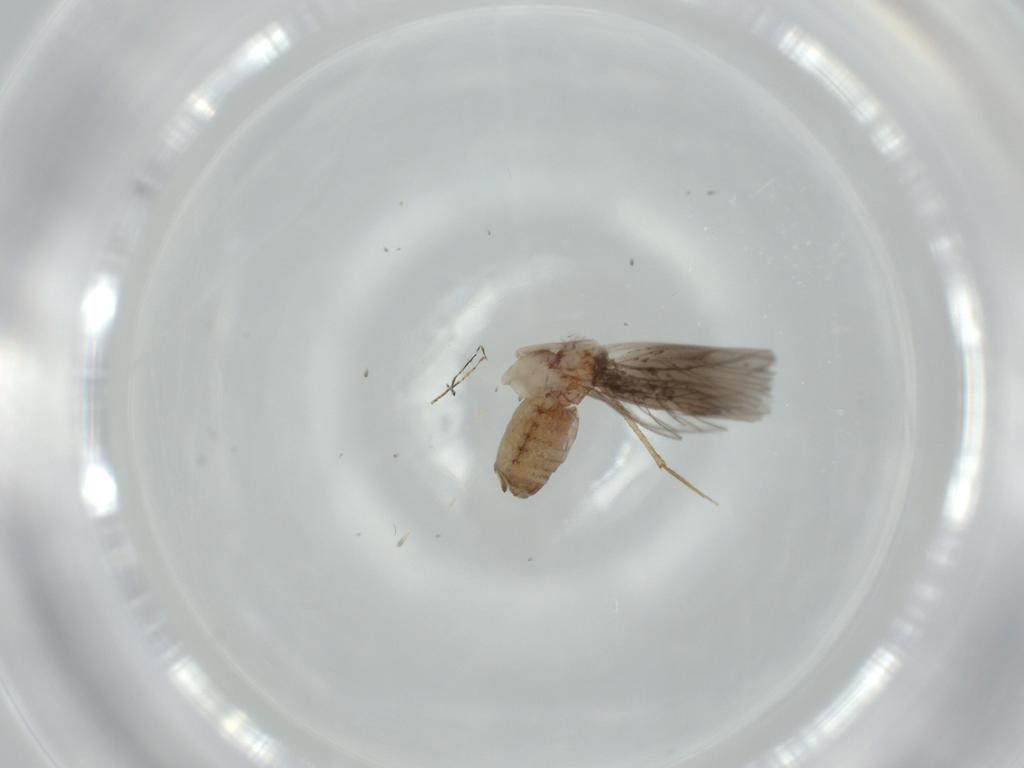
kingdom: Animalia
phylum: Arthropoda
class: Insecta
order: Psocodea
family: Lepidopsocidae
